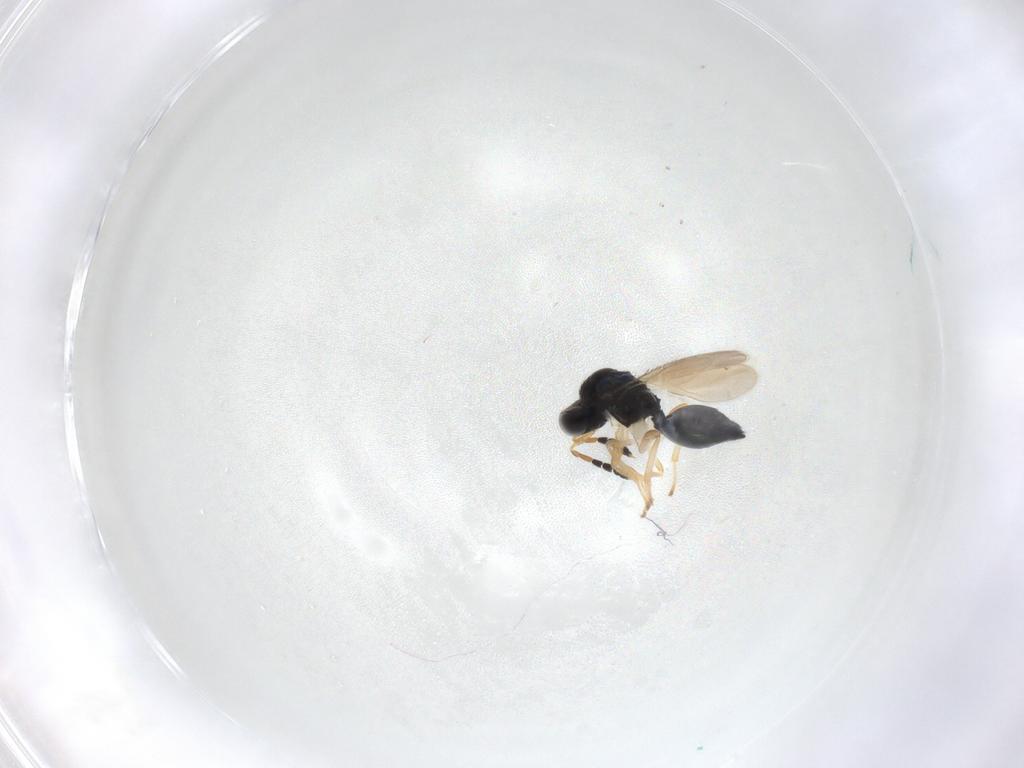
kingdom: Animalia
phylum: Arthropoda
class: Insecta
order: Hymenoptera
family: Eulophidae
